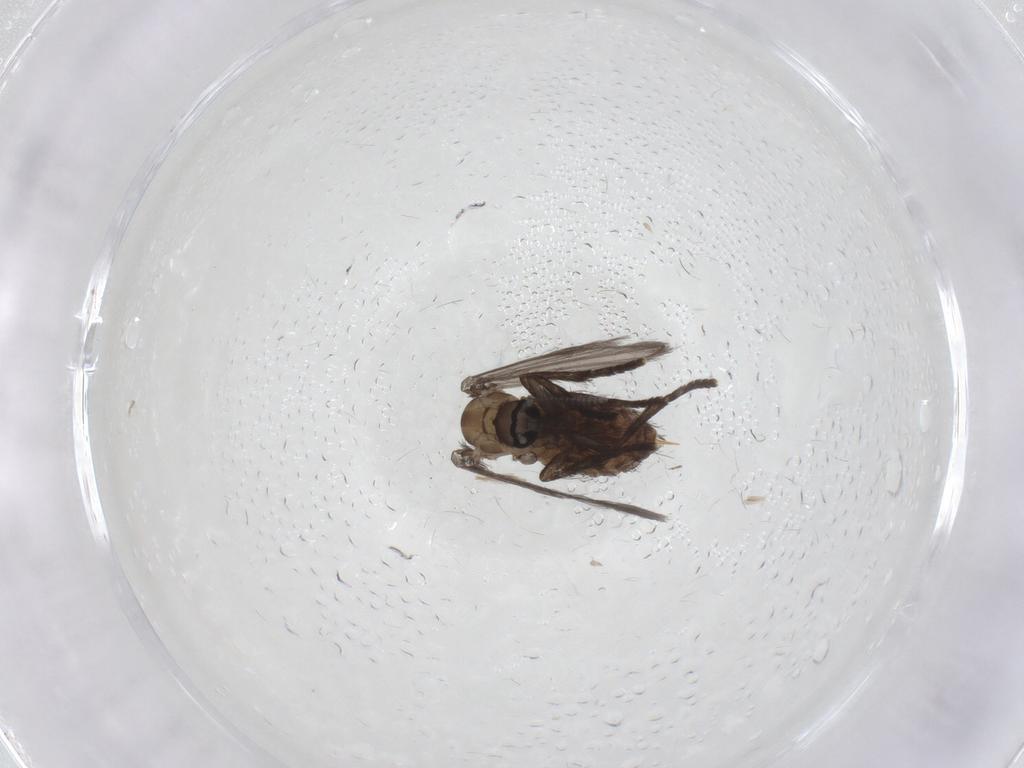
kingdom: Animalia
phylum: Arthropoda
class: Insecta
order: Diptera
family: Psychodidae
